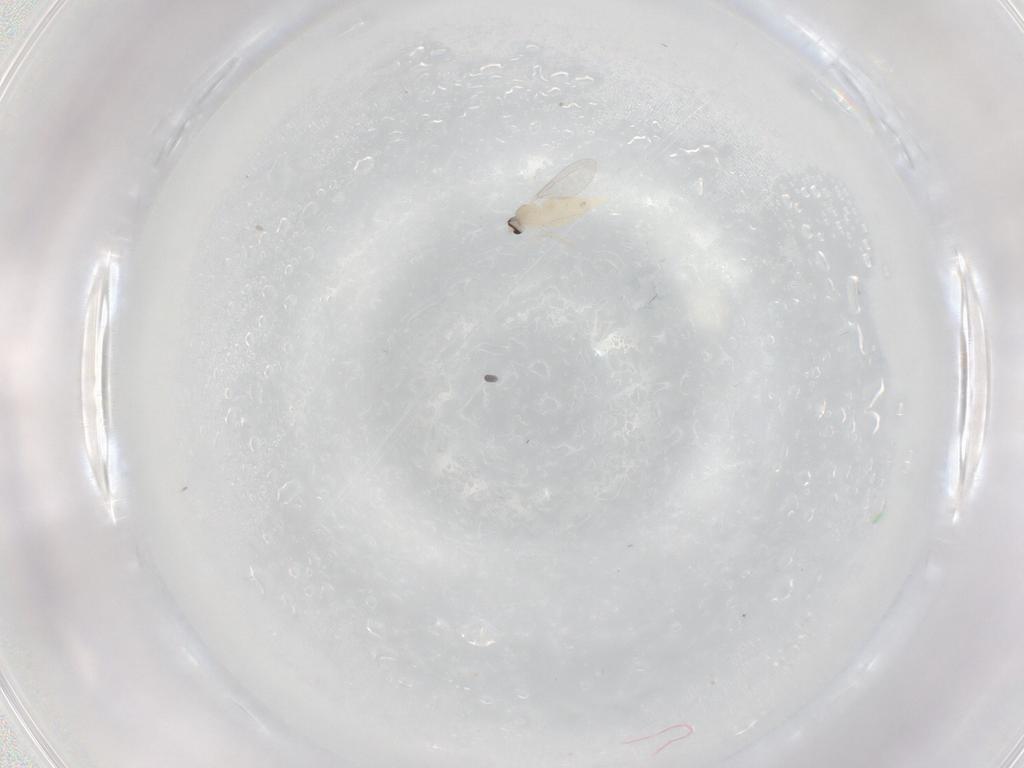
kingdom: Animalia
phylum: Arthropoda
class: Insecta
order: Diptera
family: Cecidomyiidae
